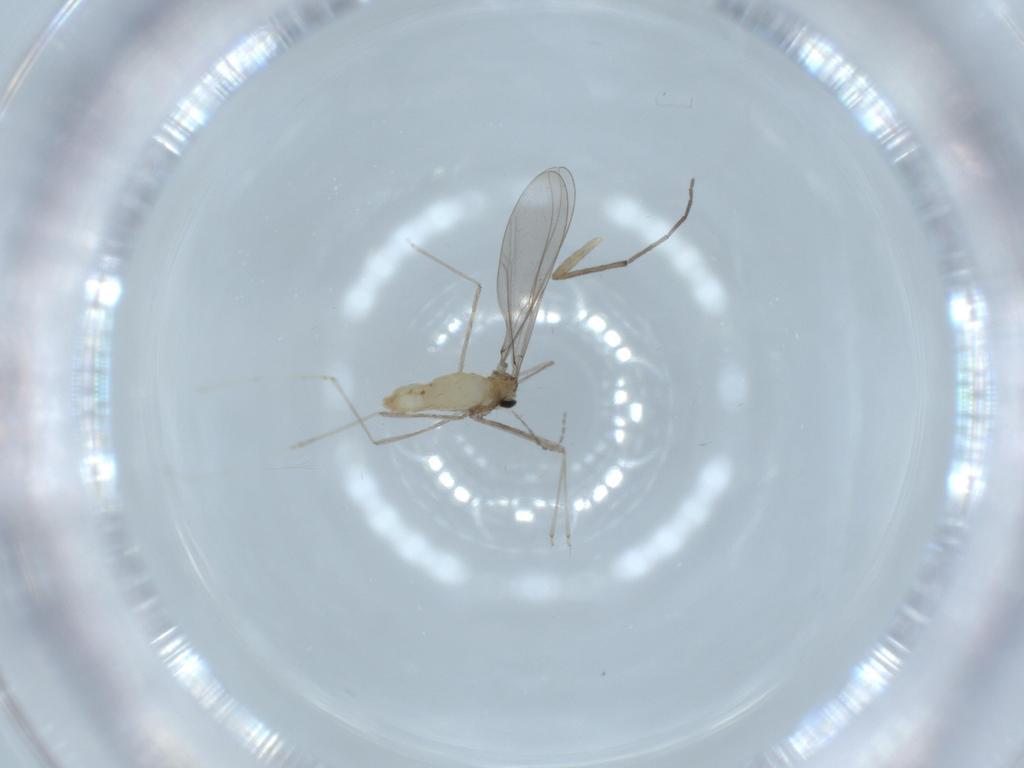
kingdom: Animalia
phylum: Arthropoda
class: Insecta
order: Diptera
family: Cecidomyiidae
